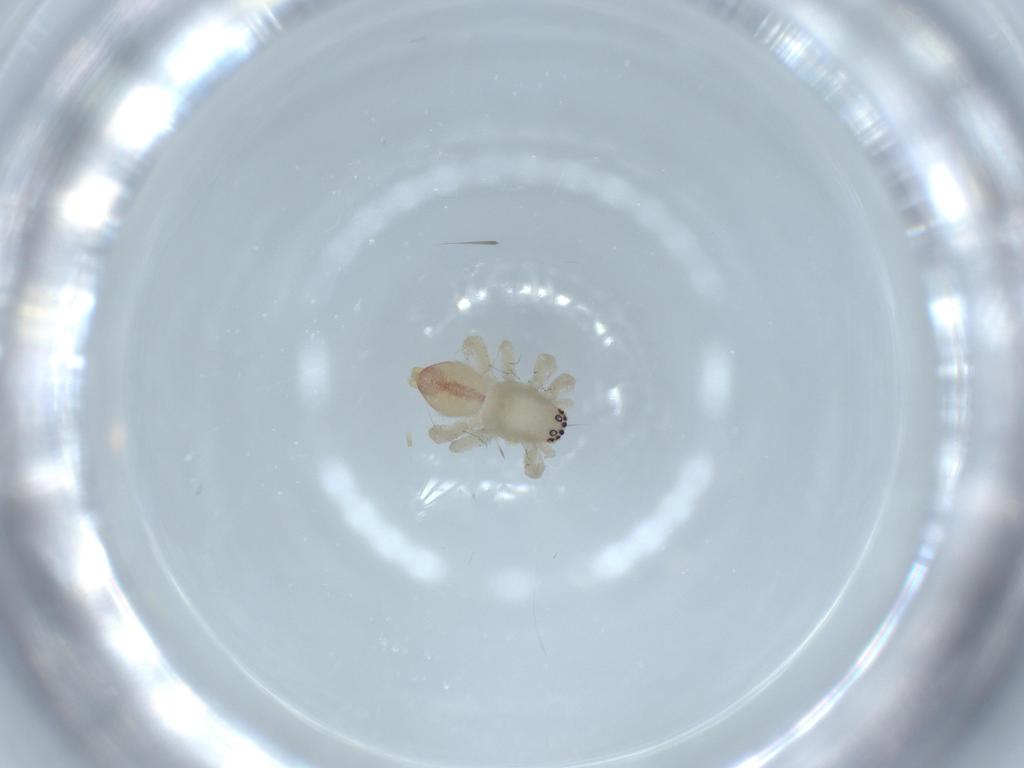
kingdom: Animalia
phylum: Arthropoda
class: Arachnida
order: Araneae
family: Clubionidae
